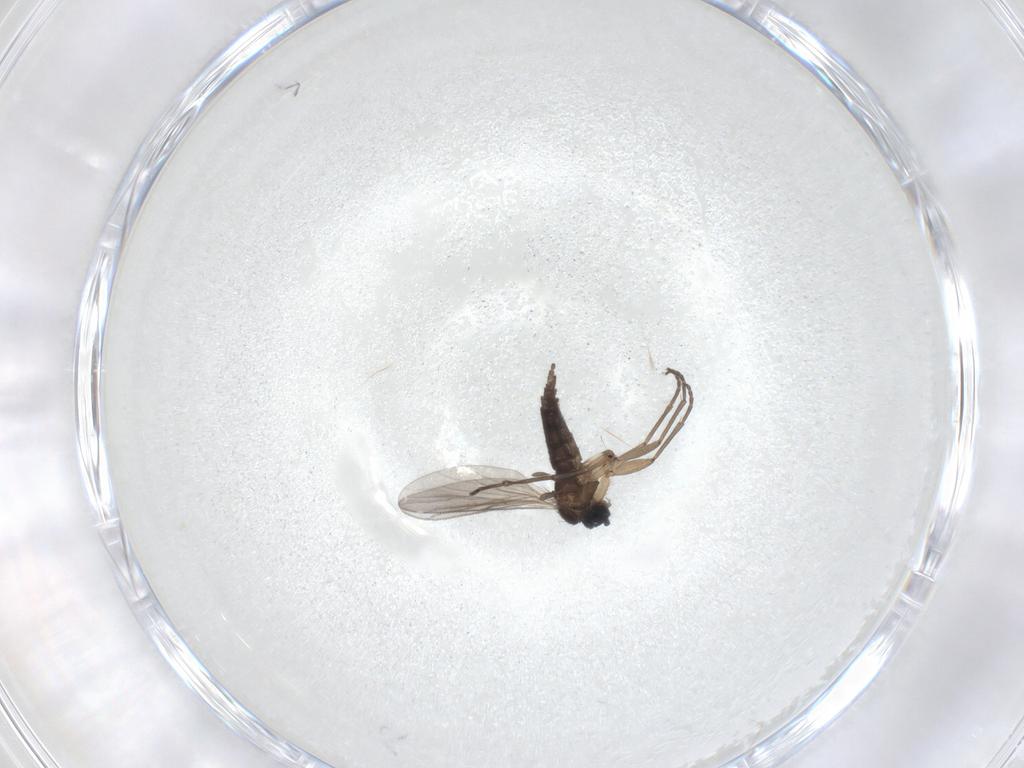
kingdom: Animalia
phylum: Arthropoda
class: Insecta
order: Diptera
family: Sciaridae
